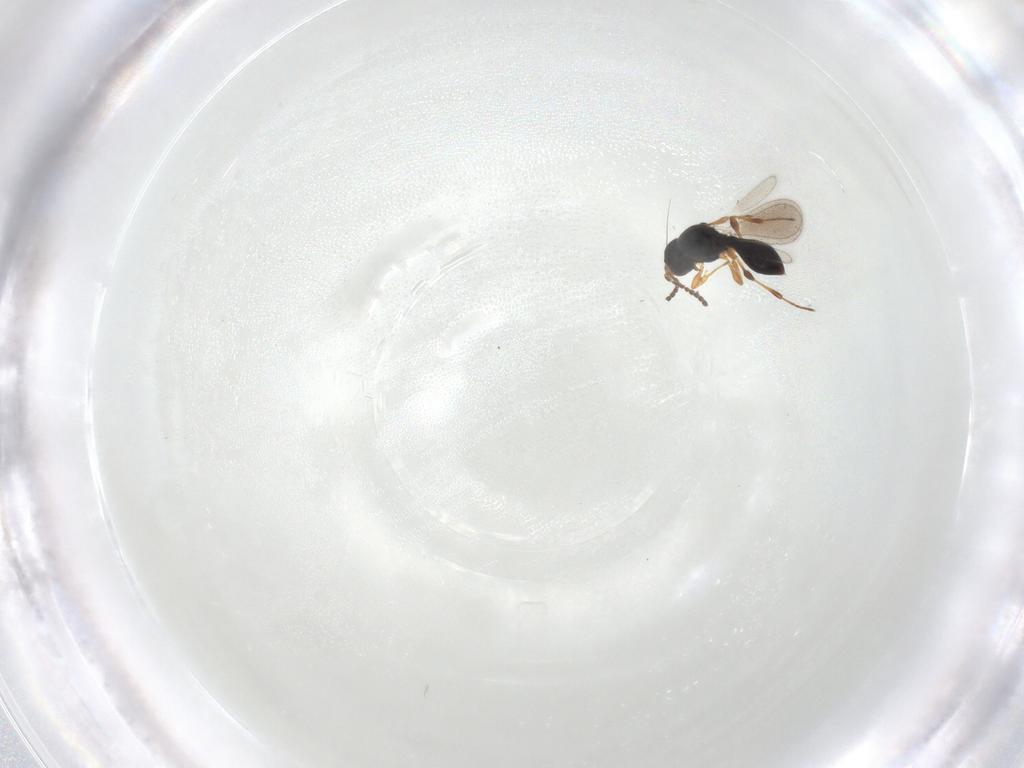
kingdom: Animalia
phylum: Arthropoda
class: Insecta
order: Hymenoptera
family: Platygastridae
